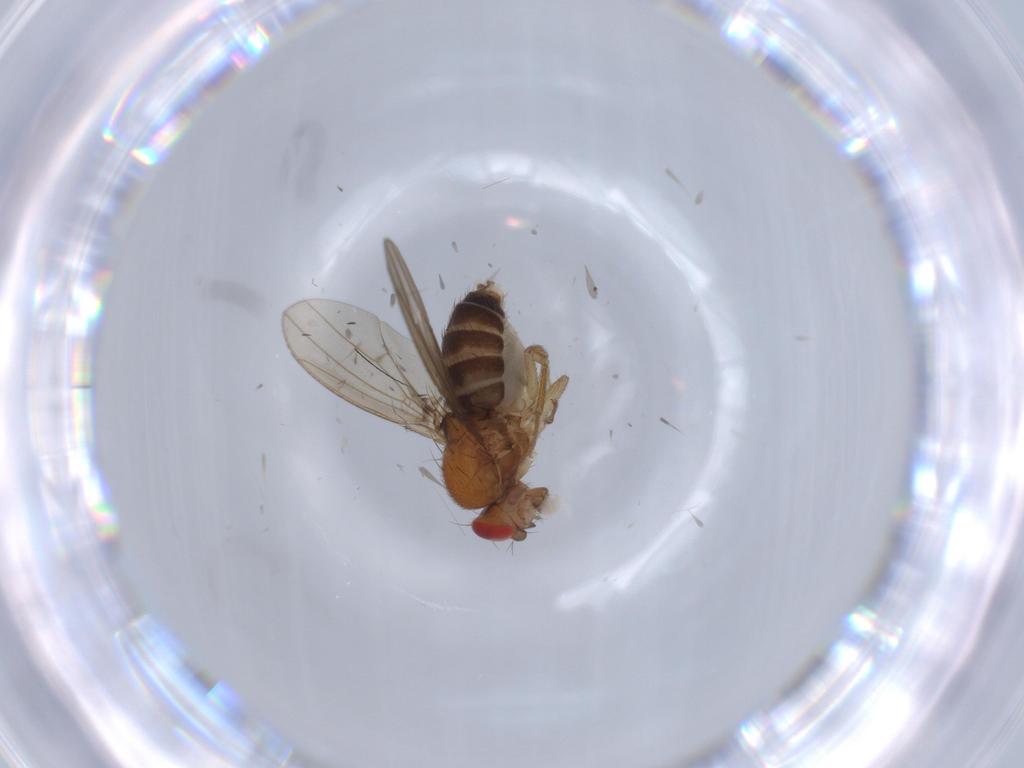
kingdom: Animalia
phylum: Arthropoda
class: Insecta
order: Diptera
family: Drosophilidae
